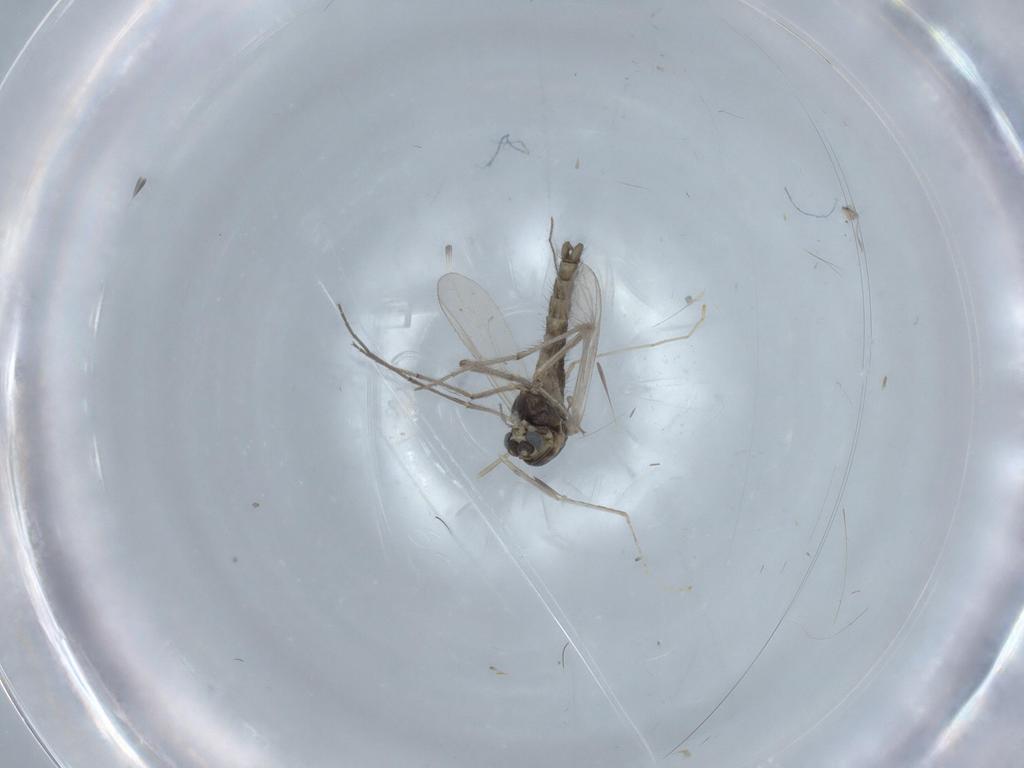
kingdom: Animalia
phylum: Arthropoda
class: Insecta
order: Diptera
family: Chironomidae
